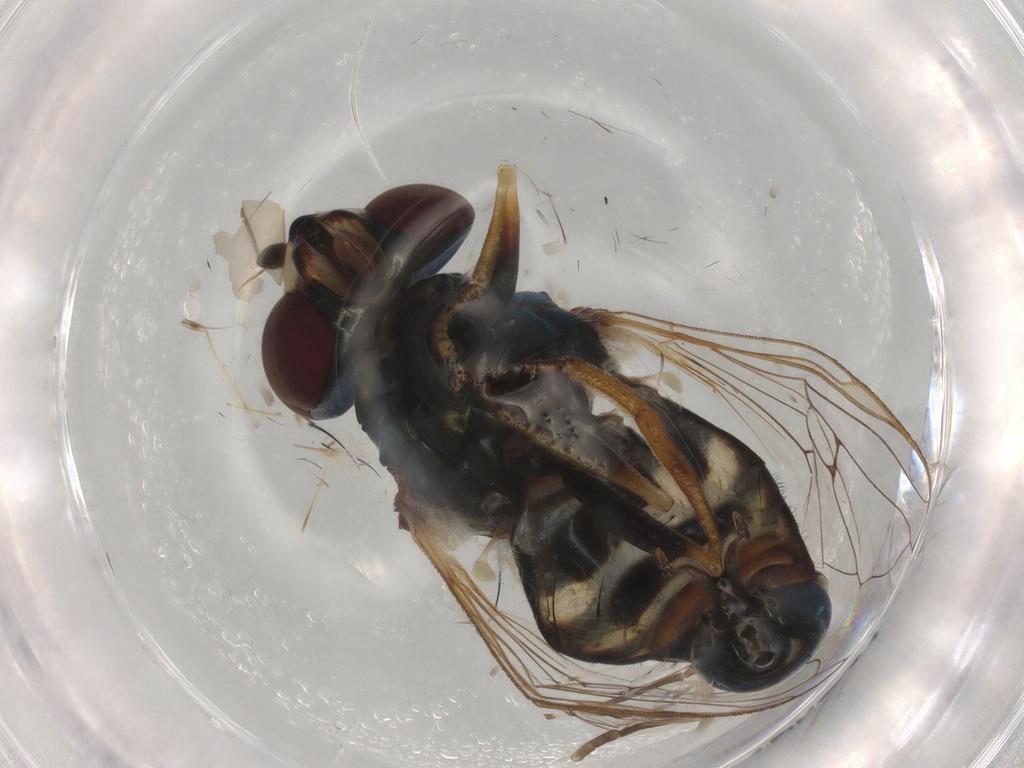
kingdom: Animalia
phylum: Arthropoda
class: Insecta
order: Diptera
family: Syrphidae
